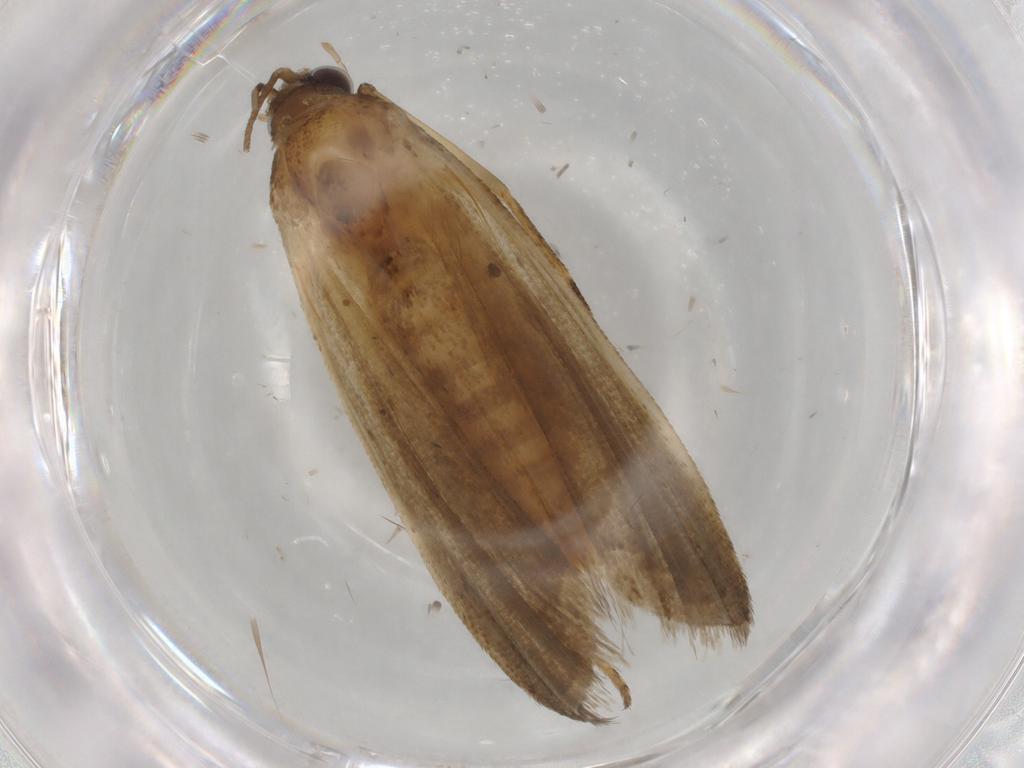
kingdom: Animalia
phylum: Arthropoda
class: Insecta
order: Lepidoptera
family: Noctuidae
